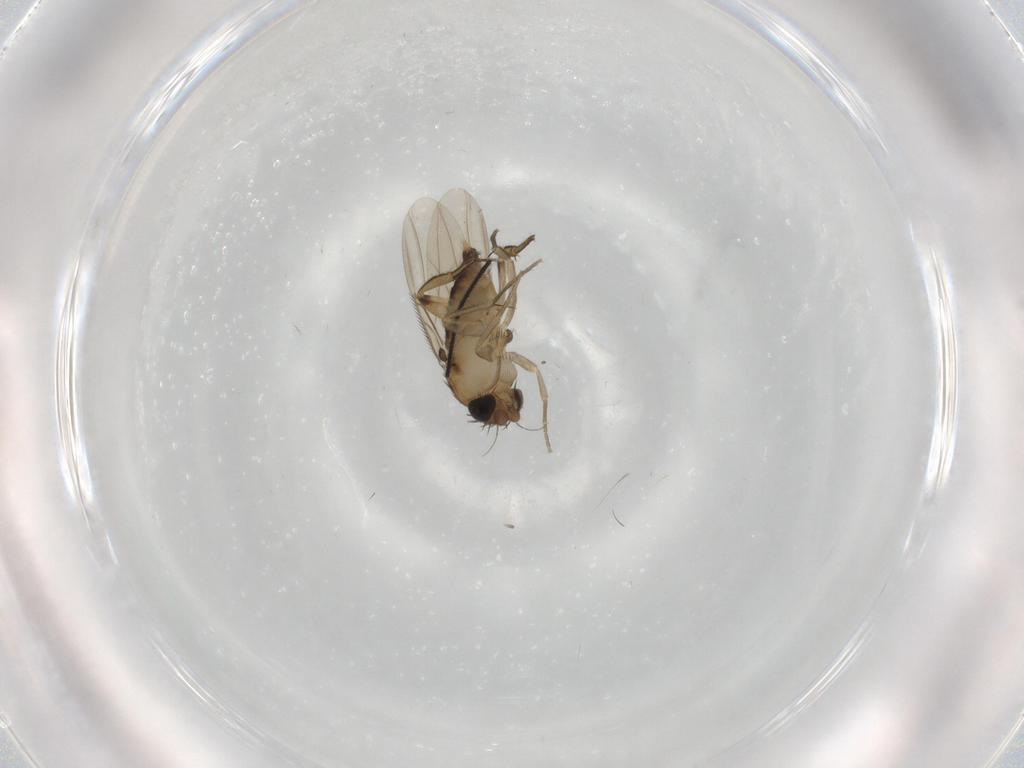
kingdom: Animalia
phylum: Arthropoda
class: Insecta
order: Diptera
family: Phoridae
